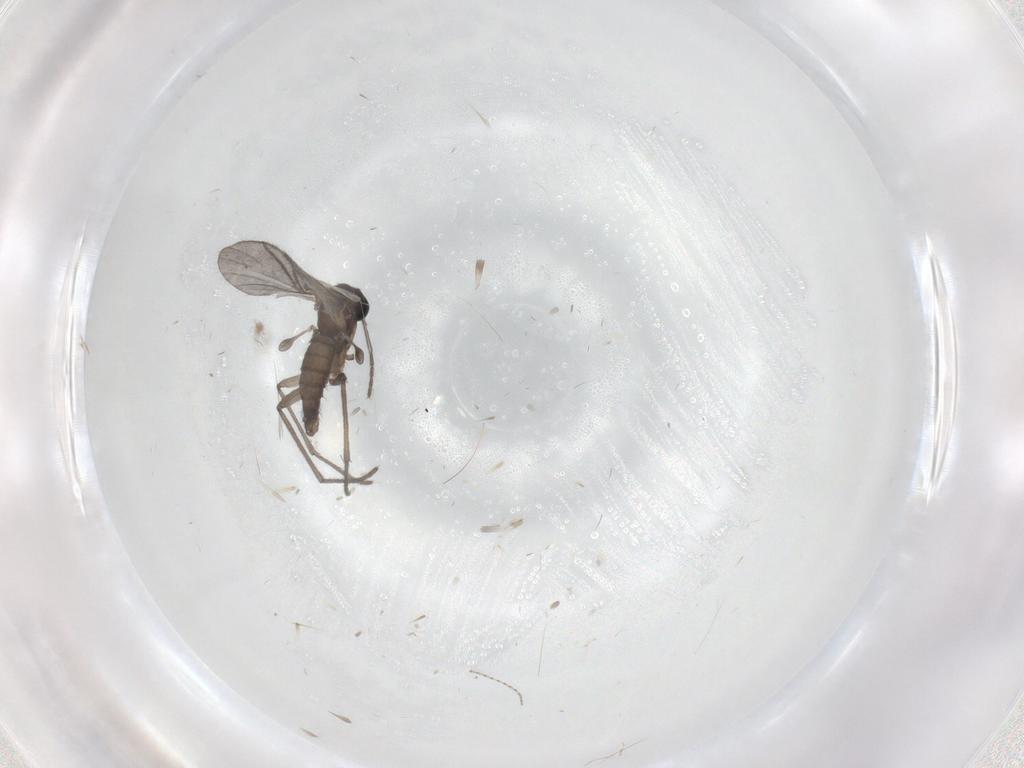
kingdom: Animalia
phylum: Arthropoda
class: Insecta
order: Diptera
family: Sciaridae
